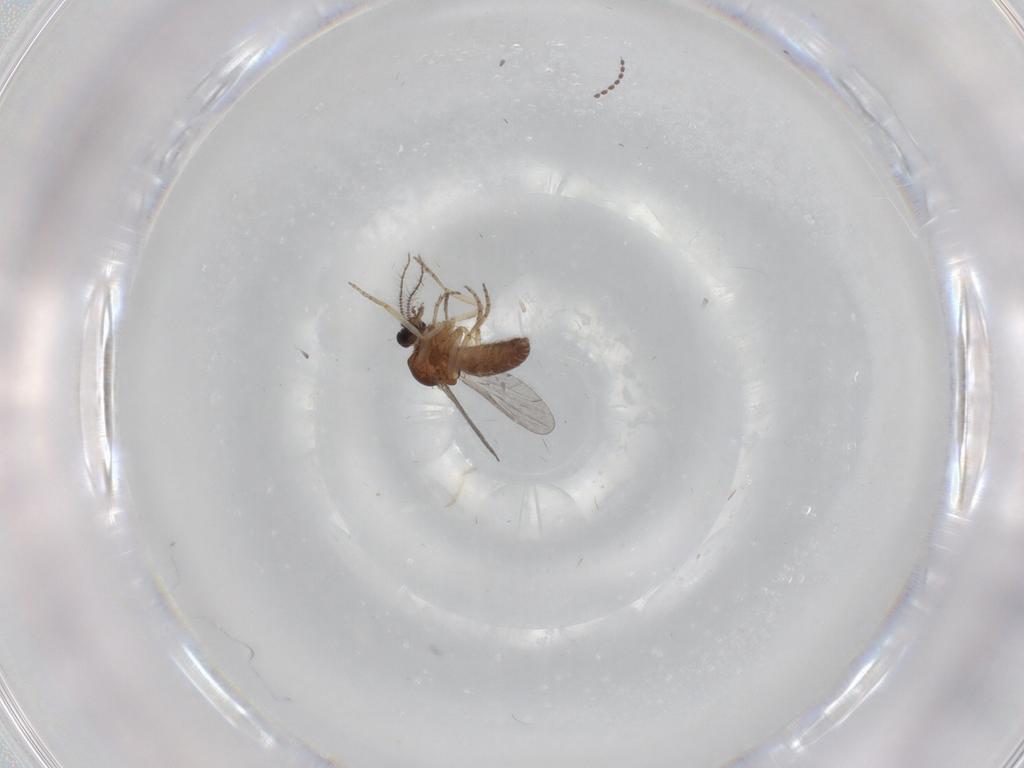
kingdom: Animalia
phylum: Arthropoda
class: Insecta
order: Diptera
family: Ceratopogonidae
